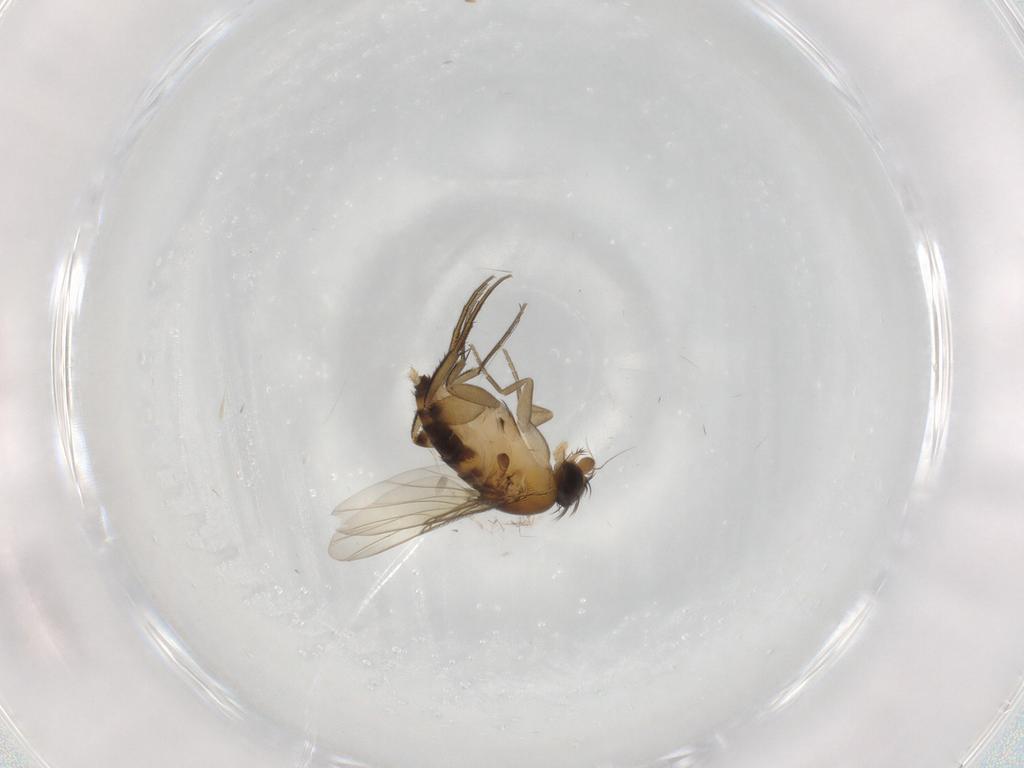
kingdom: Animalia
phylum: Arthropoda
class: Insecta
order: Diptera
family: Phoridae
